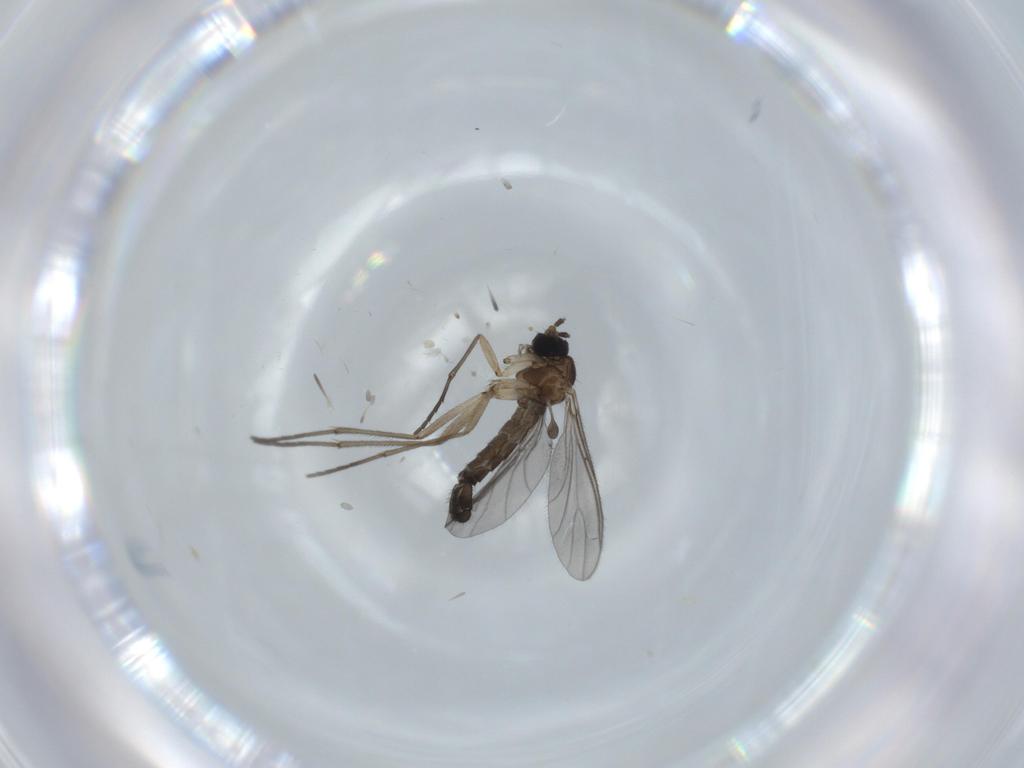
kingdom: Animalia
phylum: Arthropoda
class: Insecta
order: Diptera
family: Sciaridae
